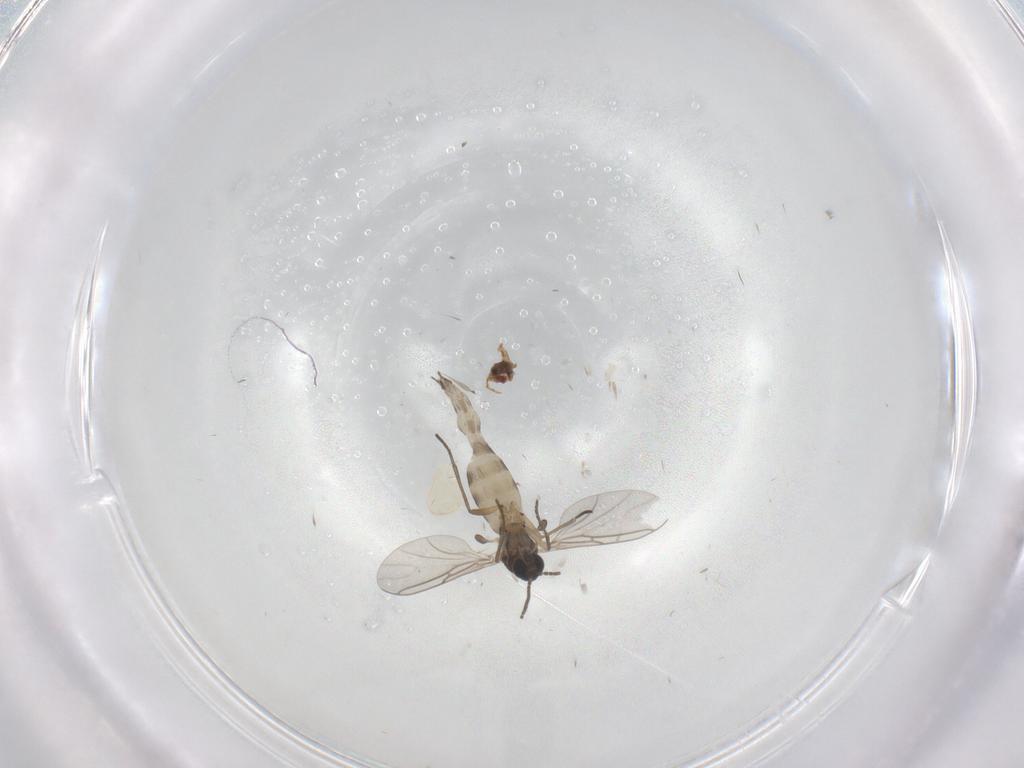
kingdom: Animalia
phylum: Arthropoda
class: Insecta
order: Diptera
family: Sciaridae
